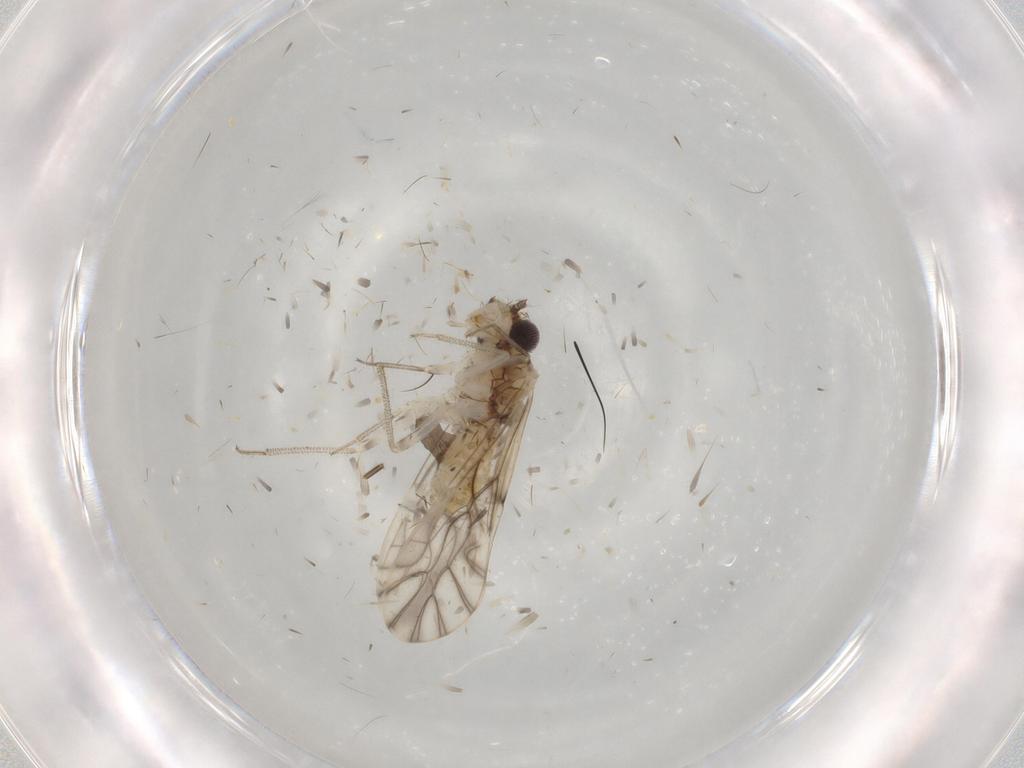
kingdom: Animalia
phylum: Arthropoda
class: Insecta
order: Psocodea
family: Caeciliusidae
